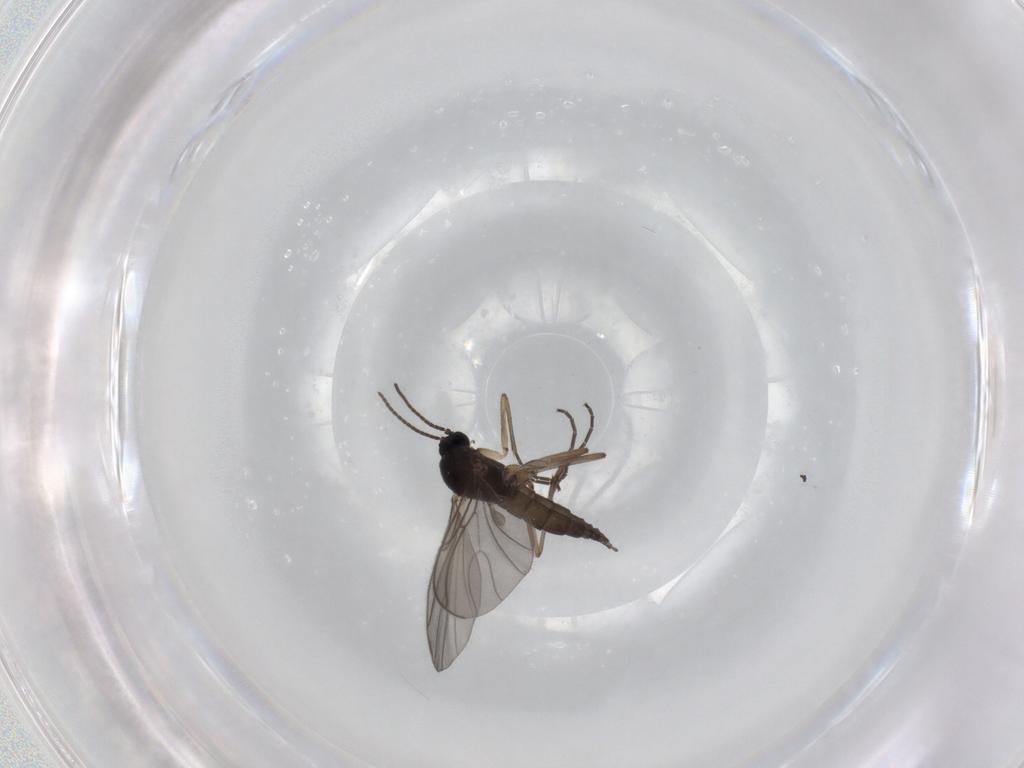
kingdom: Animalia
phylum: Arthropoda
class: Insecta
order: Diptera
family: Sciaridae
